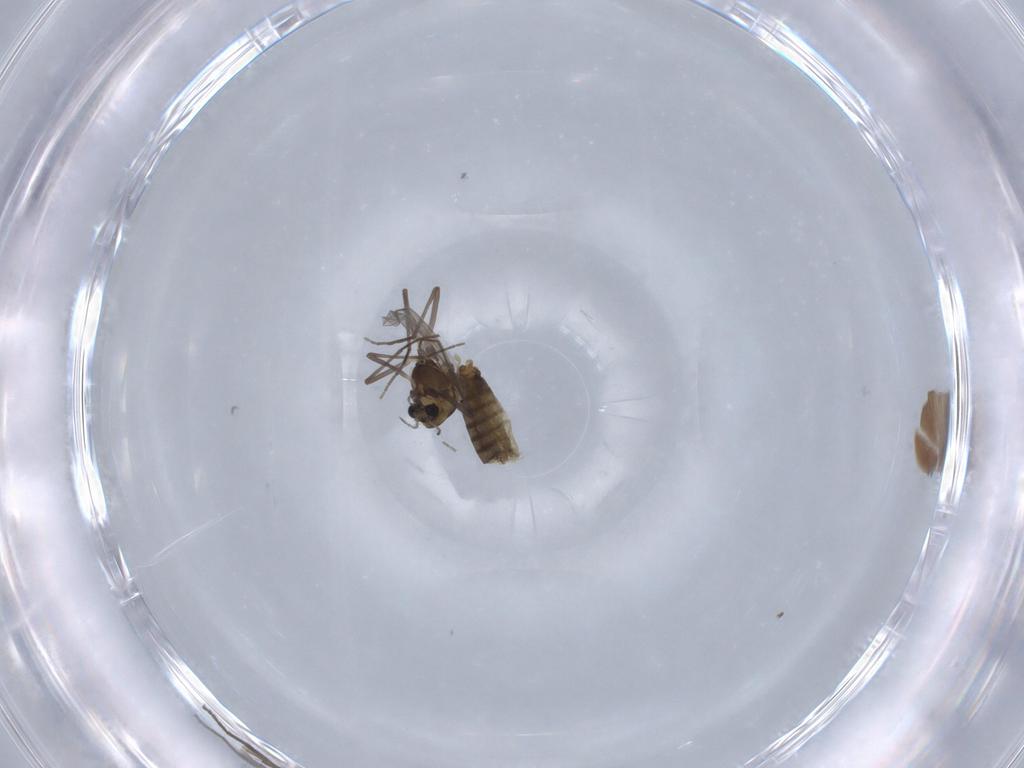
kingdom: Animalia
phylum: Arthropoda
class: Insecta
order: Diptera
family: Chironomidae
